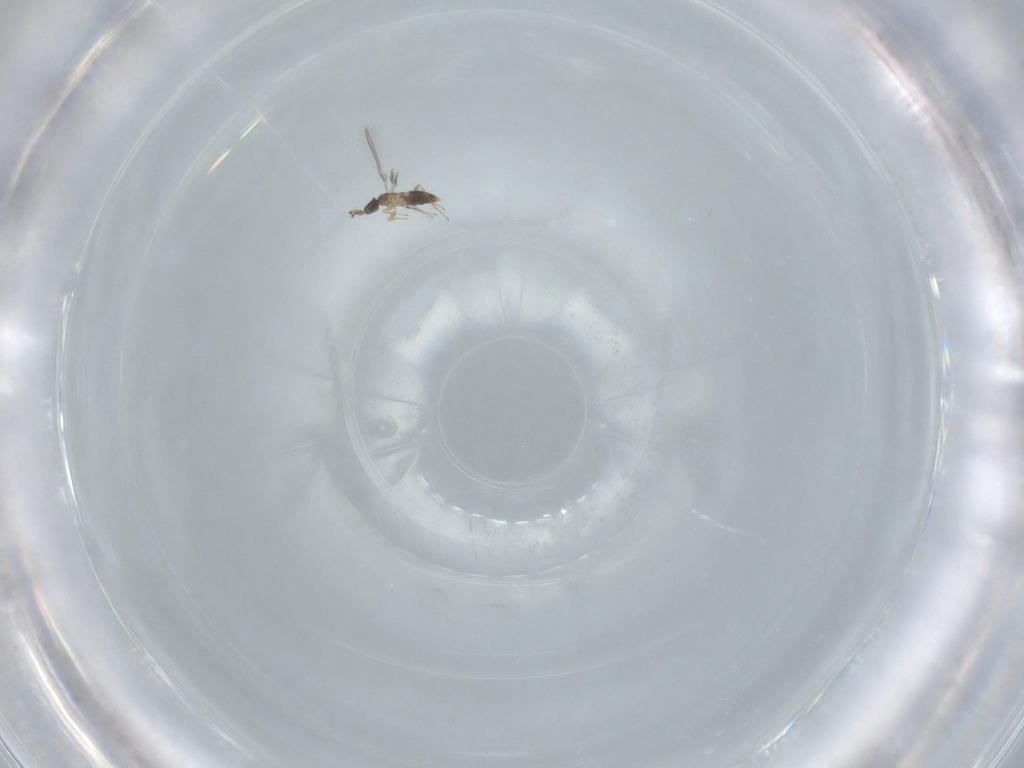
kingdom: Animalia
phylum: Arthropoda
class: Insecta
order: Hymenoptera
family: Mymaridae
